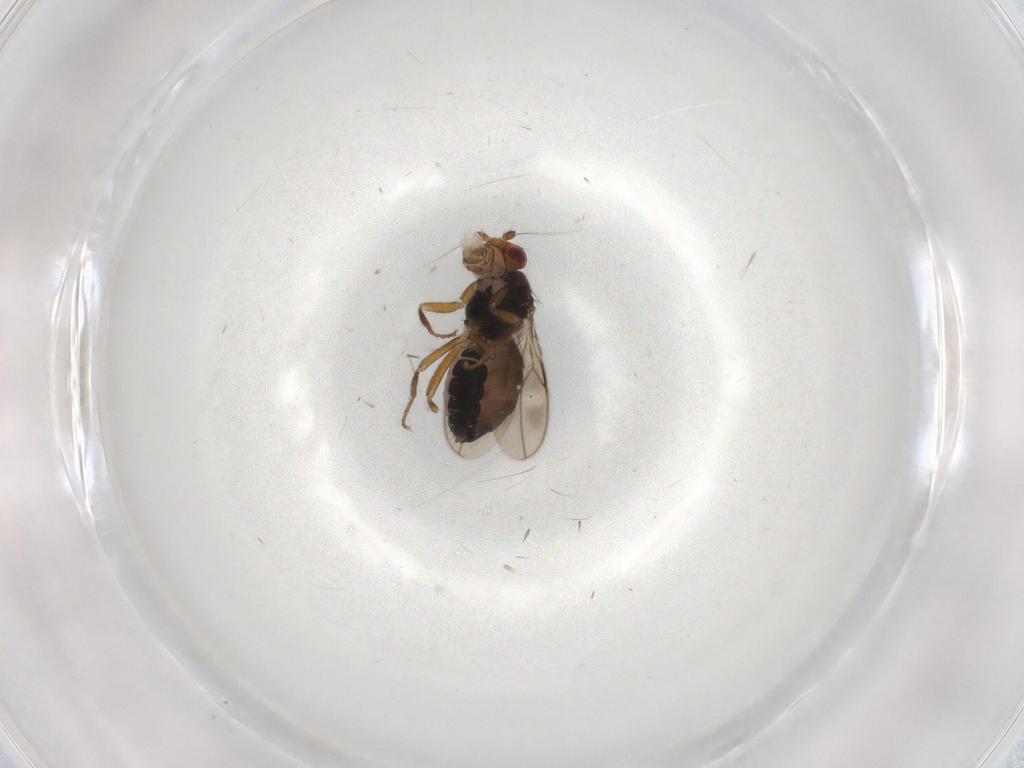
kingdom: Animalia
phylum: Arthropoda
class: Insecta
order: Diptera
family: Sphaeroceridae
